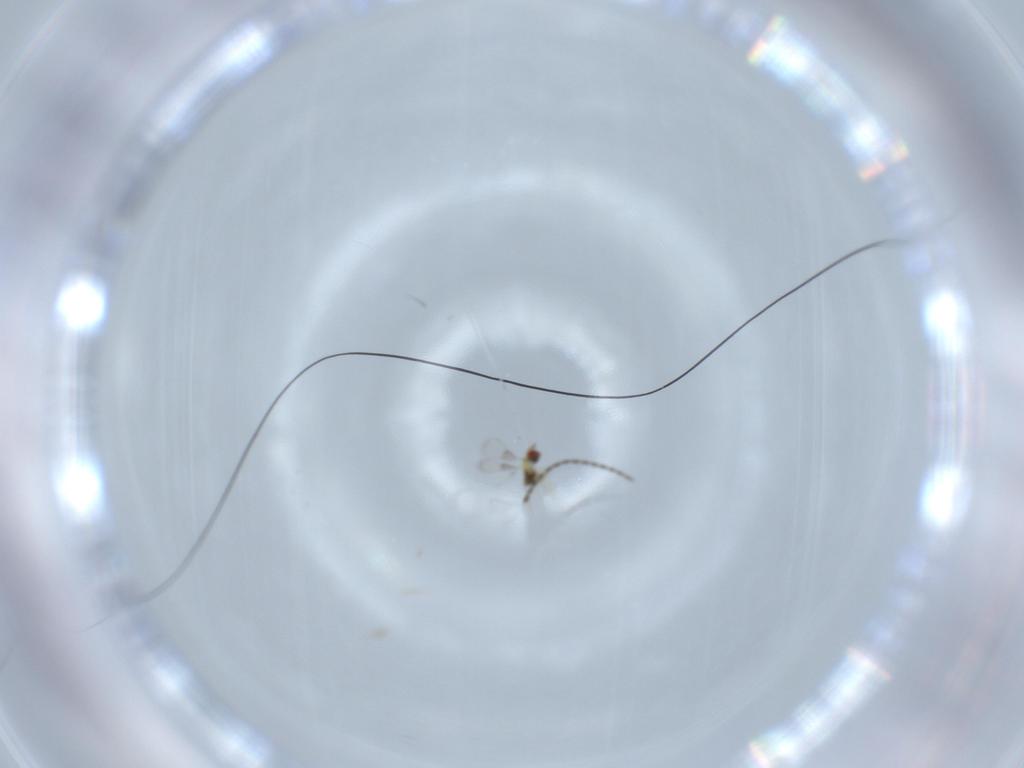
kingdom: Animalia
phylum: Arthropoda
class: Insecta
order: Hymenoptera
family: Trichogrammatidae
